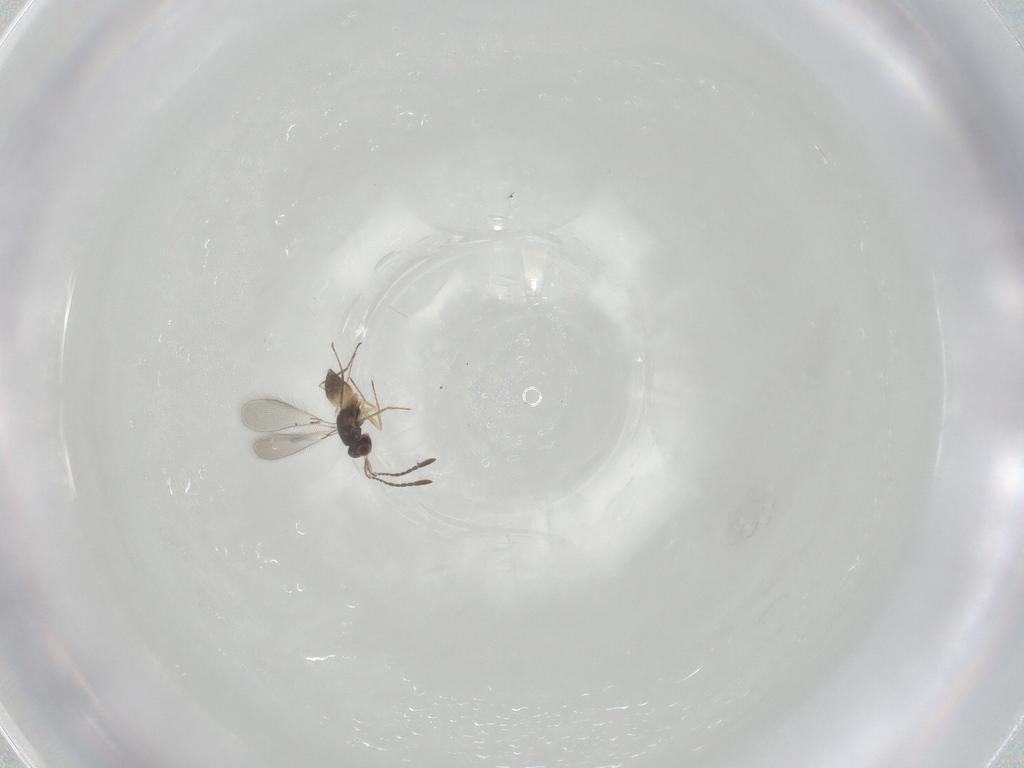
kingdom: Animalia
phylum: Arthropoda
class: Insecta
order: Hymenoptera
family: Mymaridae
